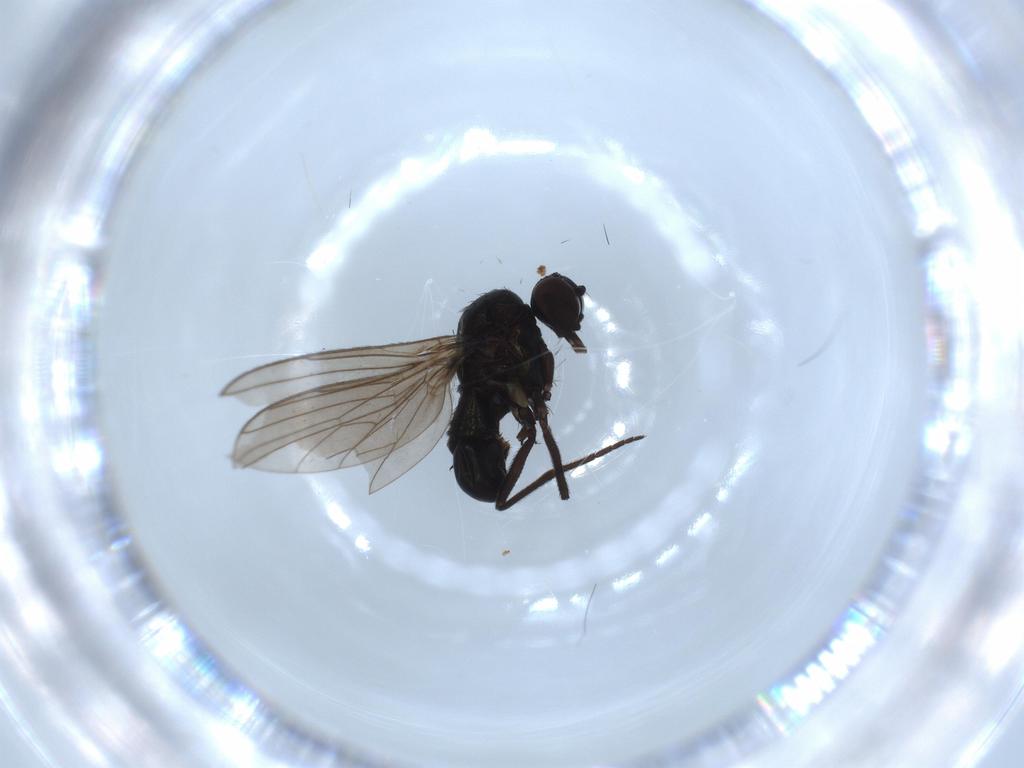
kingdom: Animalia
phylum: Arthropoda
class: Insecta
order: Diptera
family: Dolichopodidae
